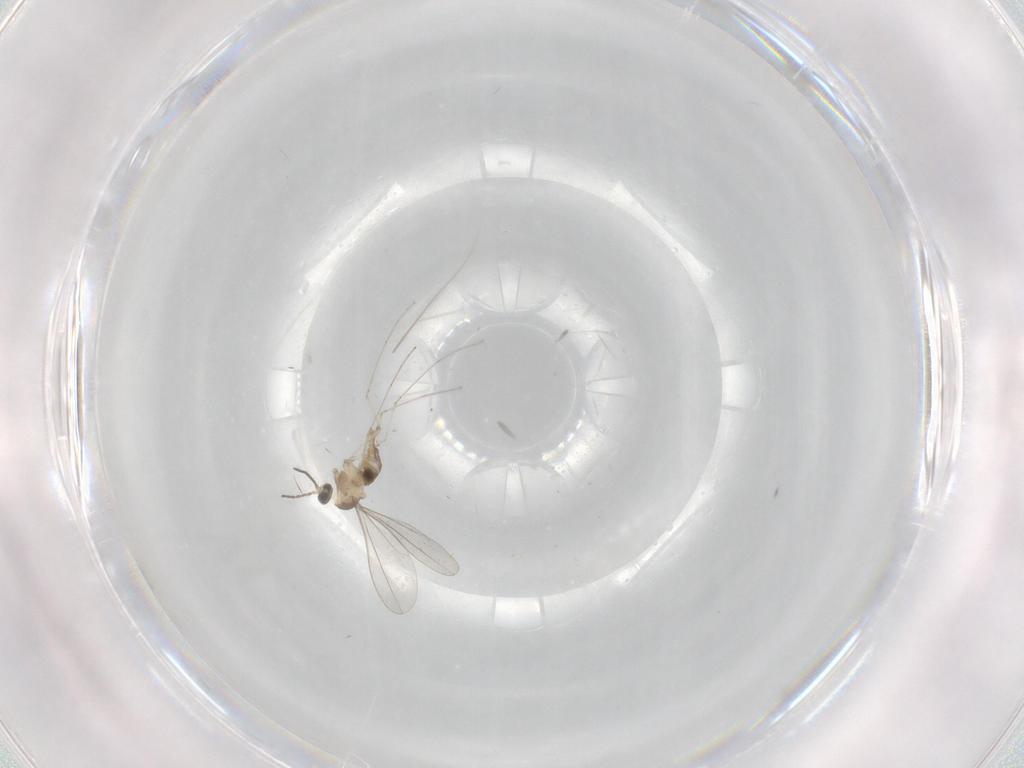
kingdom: Animalia
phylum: Arthropoda
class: Insecta
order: Diptera
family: Cecidomyiidae
